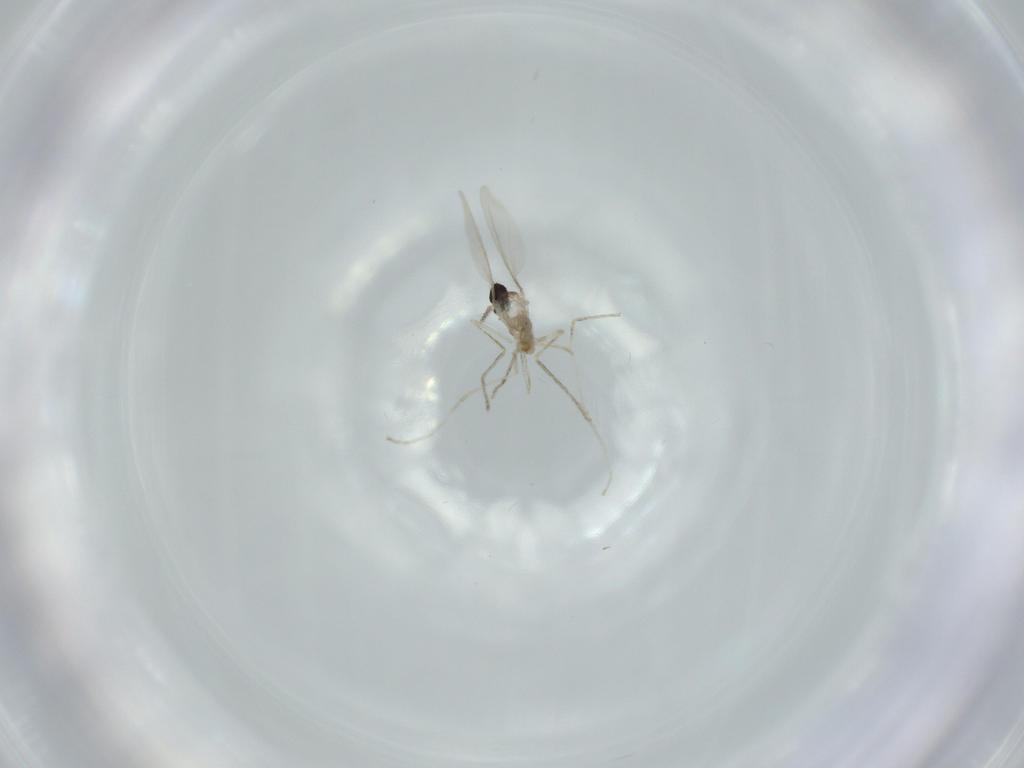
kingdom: Animalia
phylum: Arthropoda
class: Insecta
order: Diptera
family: Cecidomyiidae
